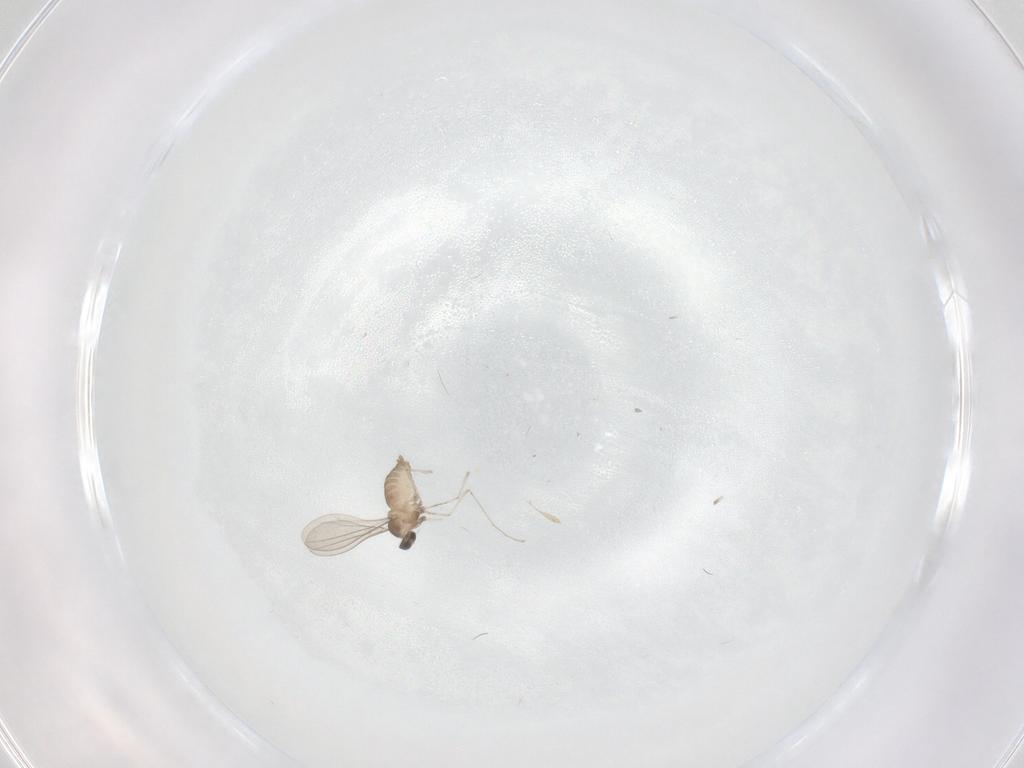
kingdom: Animalia
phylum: Arthropoda
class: Insecta
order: Diptera
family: Cecidomyiidae
